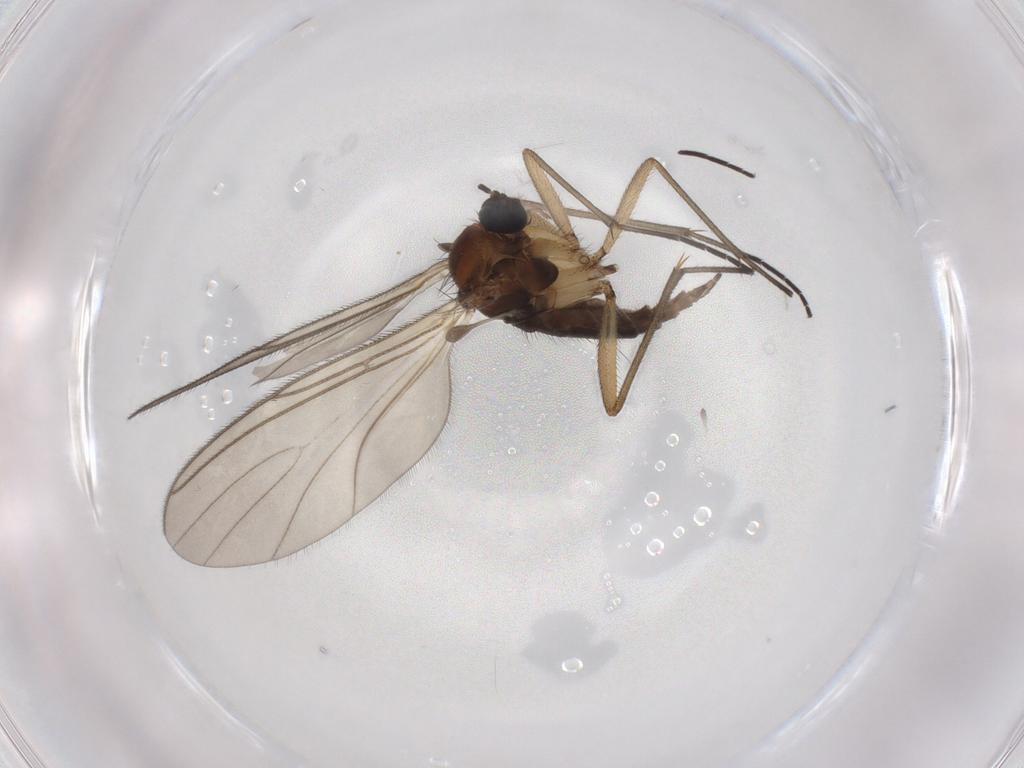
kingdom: Animalia
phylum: Arthropoda
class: Insecta
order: Diptera
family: Sciaridae
